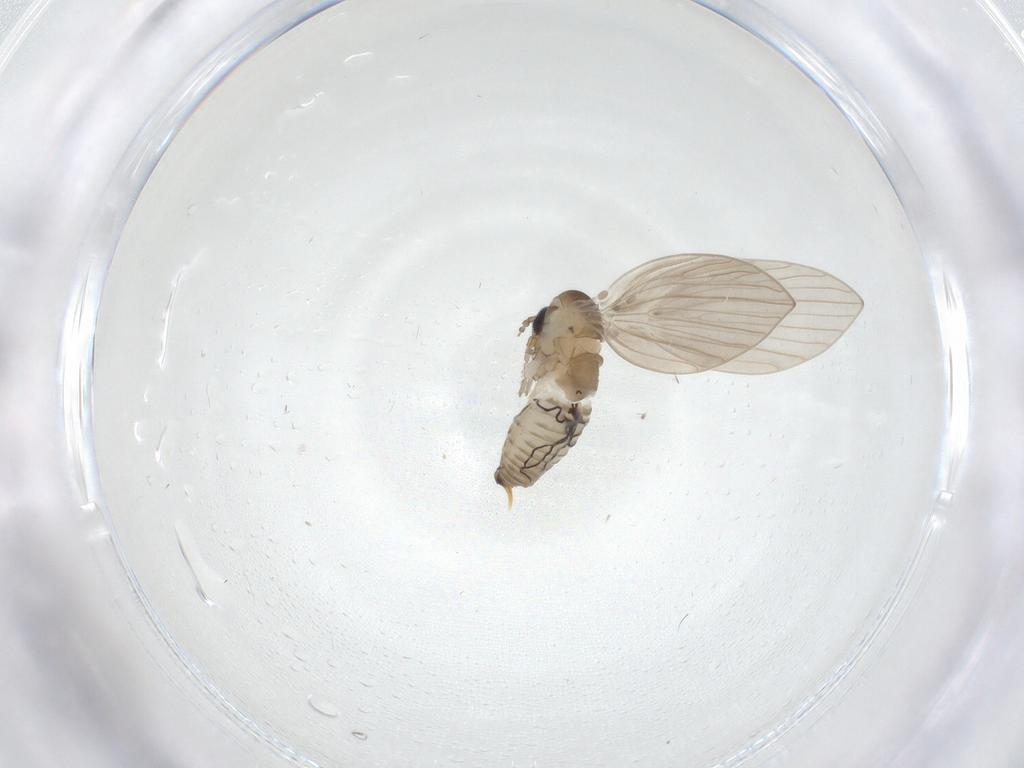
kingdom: Animalia
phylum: Arthropoda
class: Insecta
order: Diptera
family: Psychodidae
